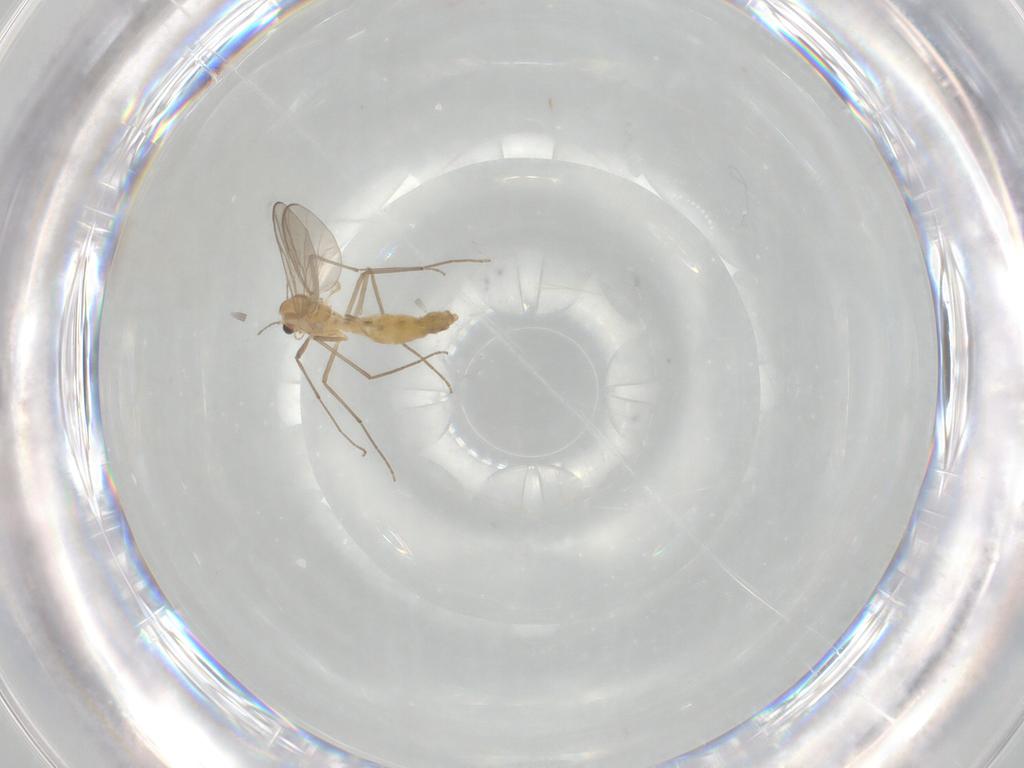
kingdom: Animalia
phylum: Arthropoda
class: Insecta
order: Diptera
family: Chironomidae
